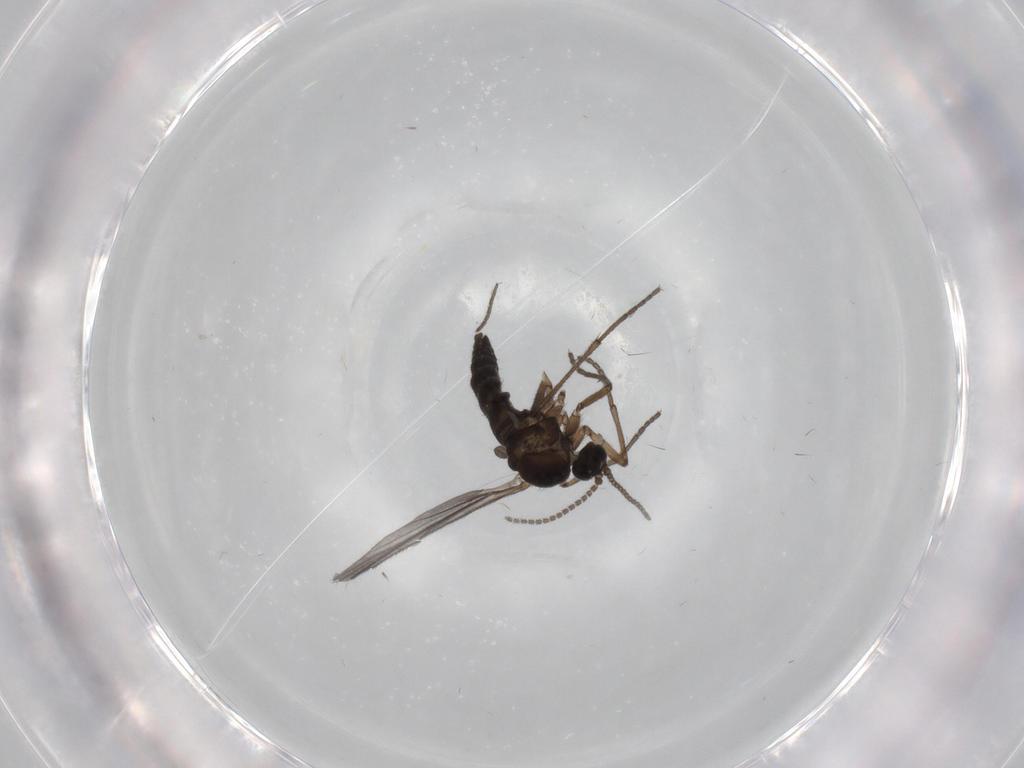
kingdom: Animalia
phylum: Arthropoda
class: Insecta
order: Diptera
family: Sciaridae
